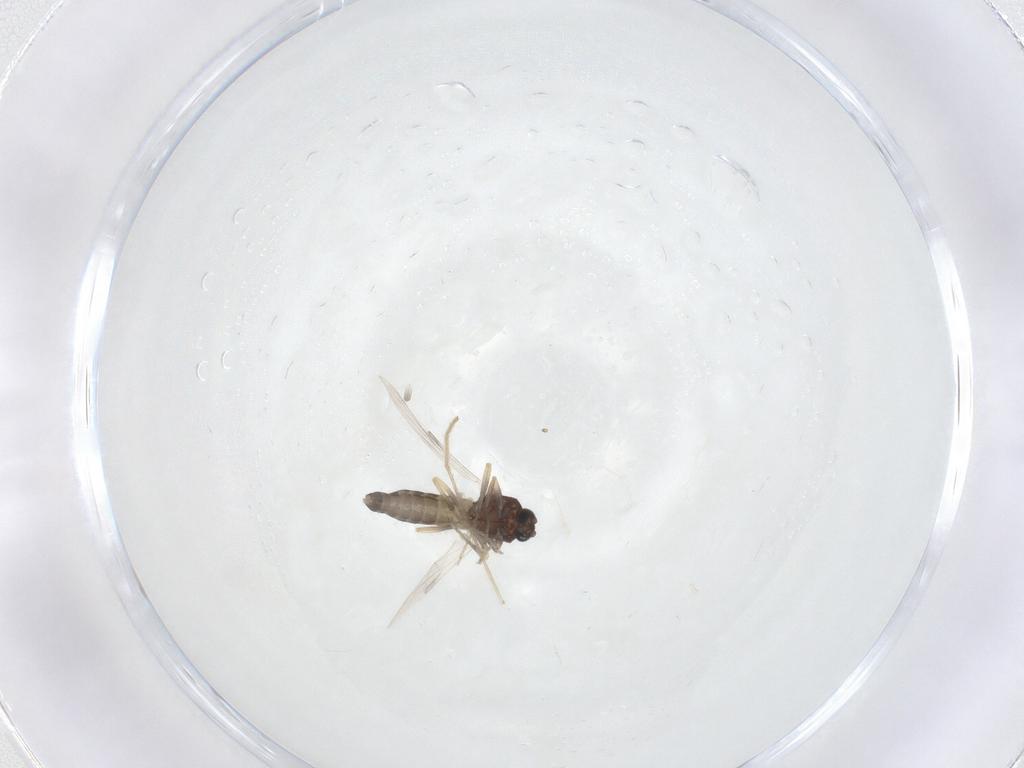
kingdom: Animalia
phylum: Arthropoda
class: Insecta
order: Diptera
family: Ceratopogonidae
